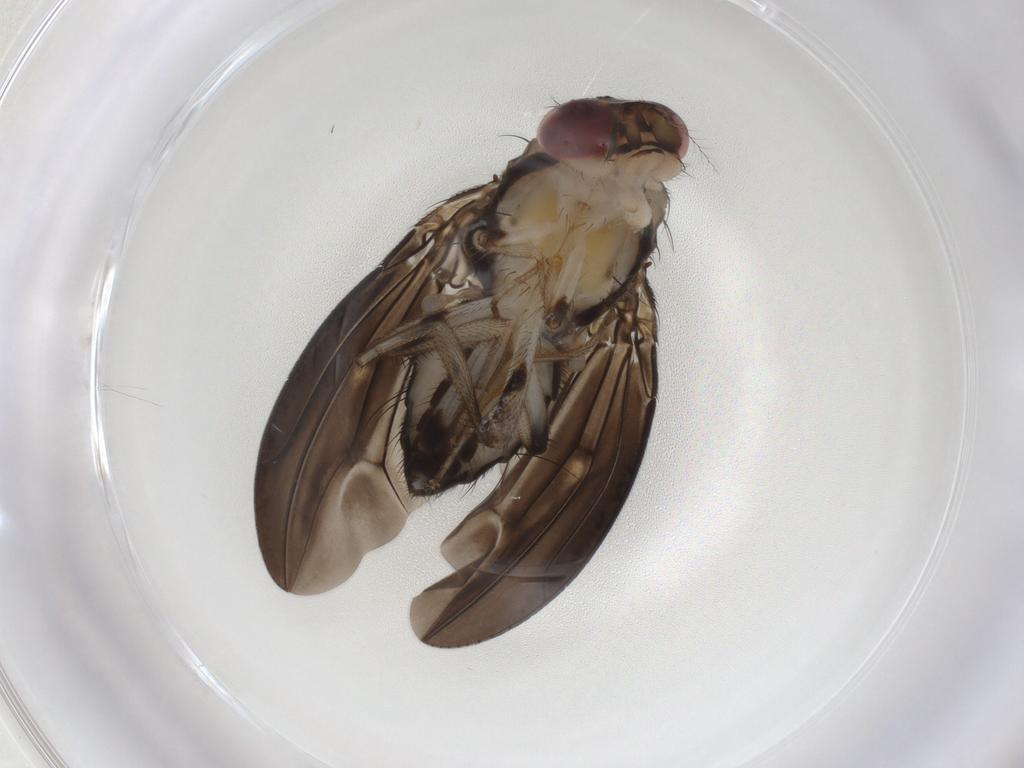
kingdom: Animalia
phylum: Arthropoda
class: Insecta
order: Diptera
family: Drosophilidae
